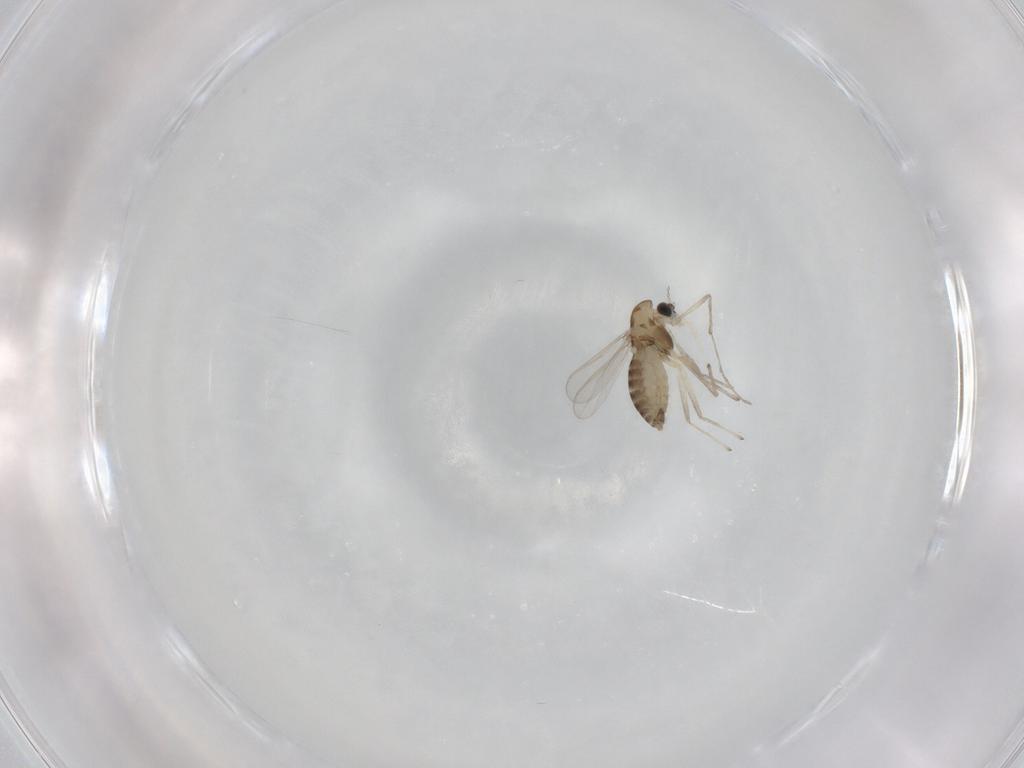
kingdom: Animalia
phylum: Arthropoda
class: Insecta
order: Diptera
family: Chironomidae
